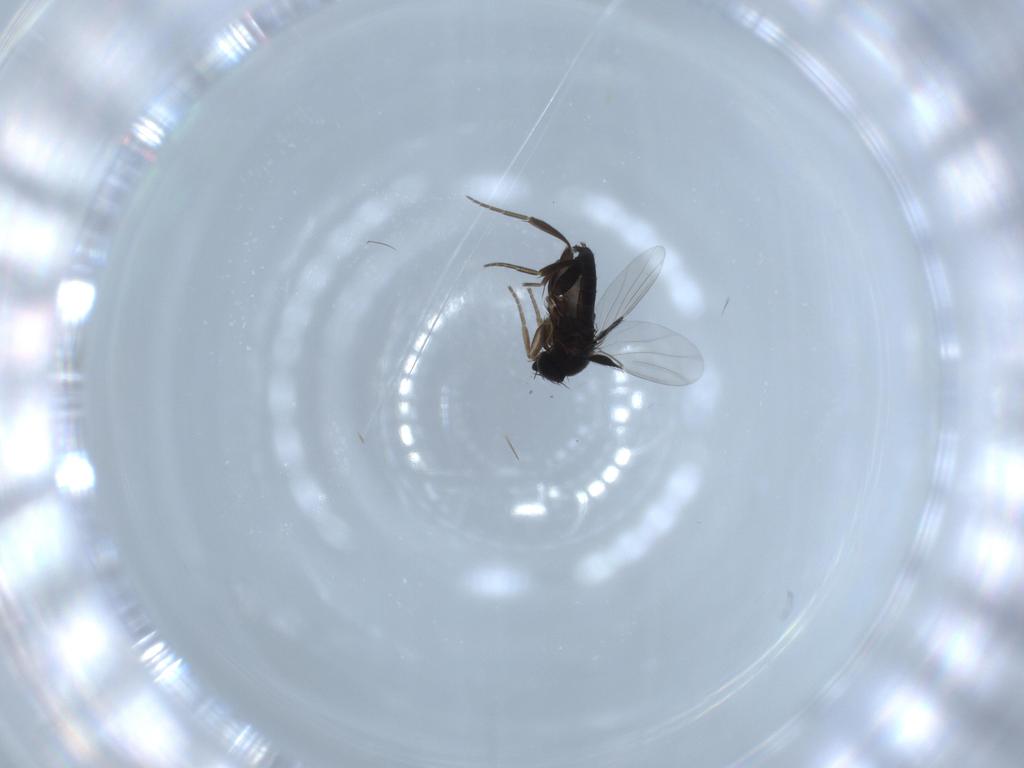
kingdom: Animalia
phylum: Arthropoda
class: Insecta
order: Diptera
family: Phoridae
